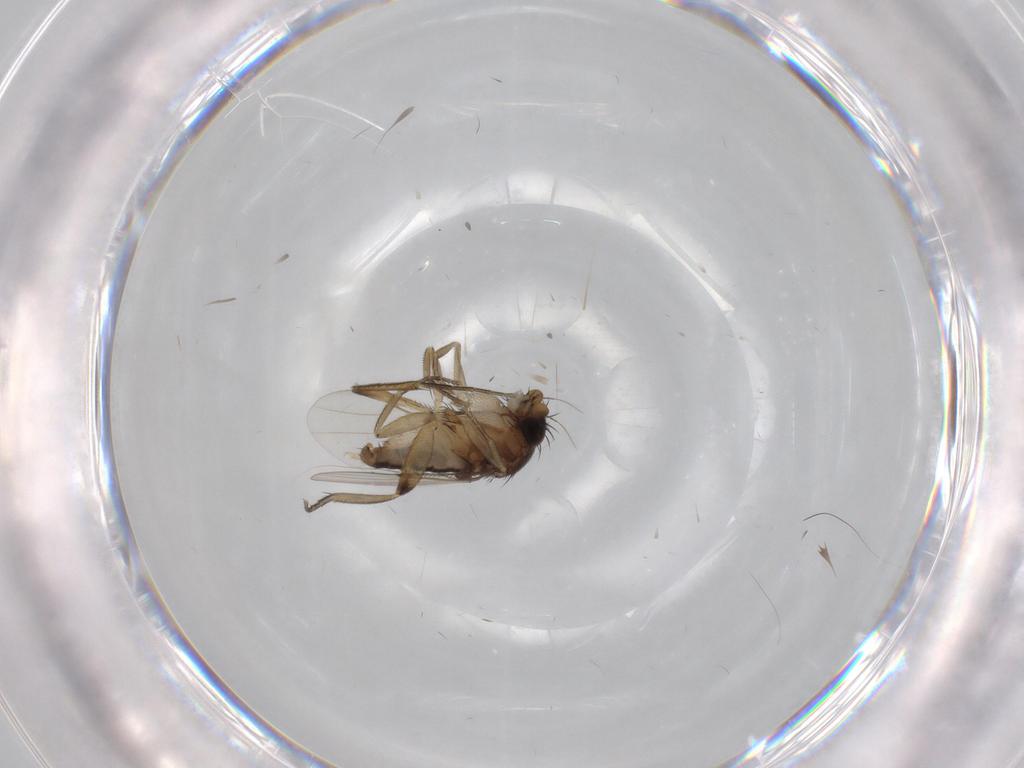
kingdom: Animalia
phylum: Arthropoda
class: Insecta
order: Diptera
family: Phoridae
